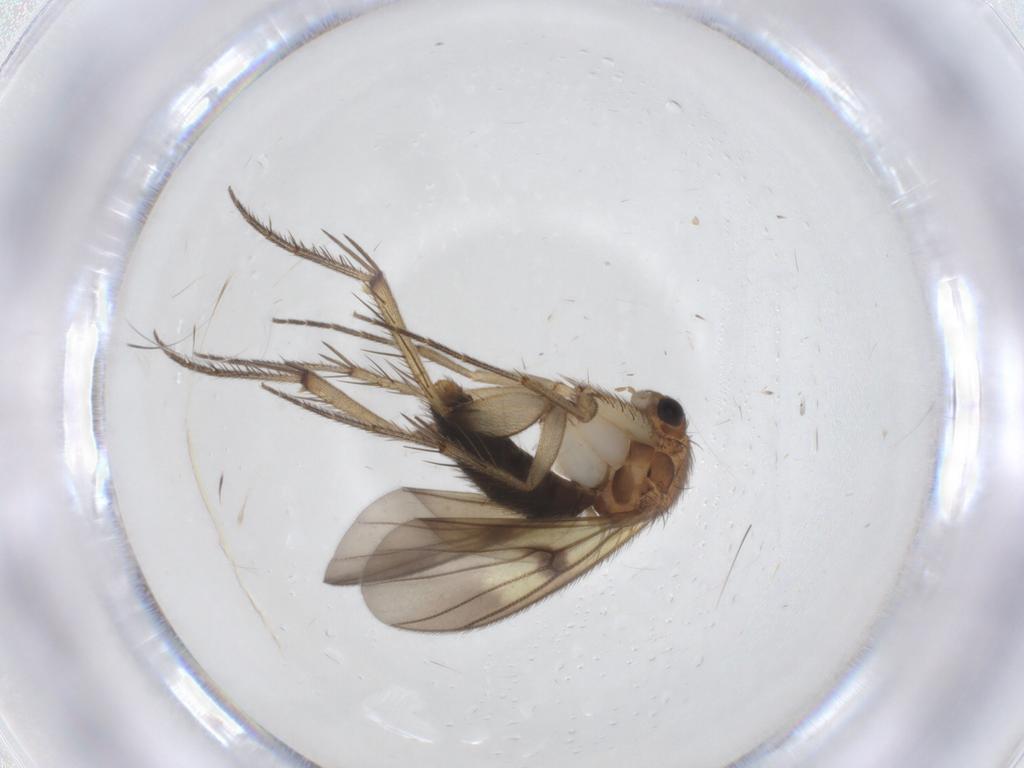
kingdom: Animalia
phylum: Arthropoda
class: Insecta
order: Diptera
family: Mycetophilidae
